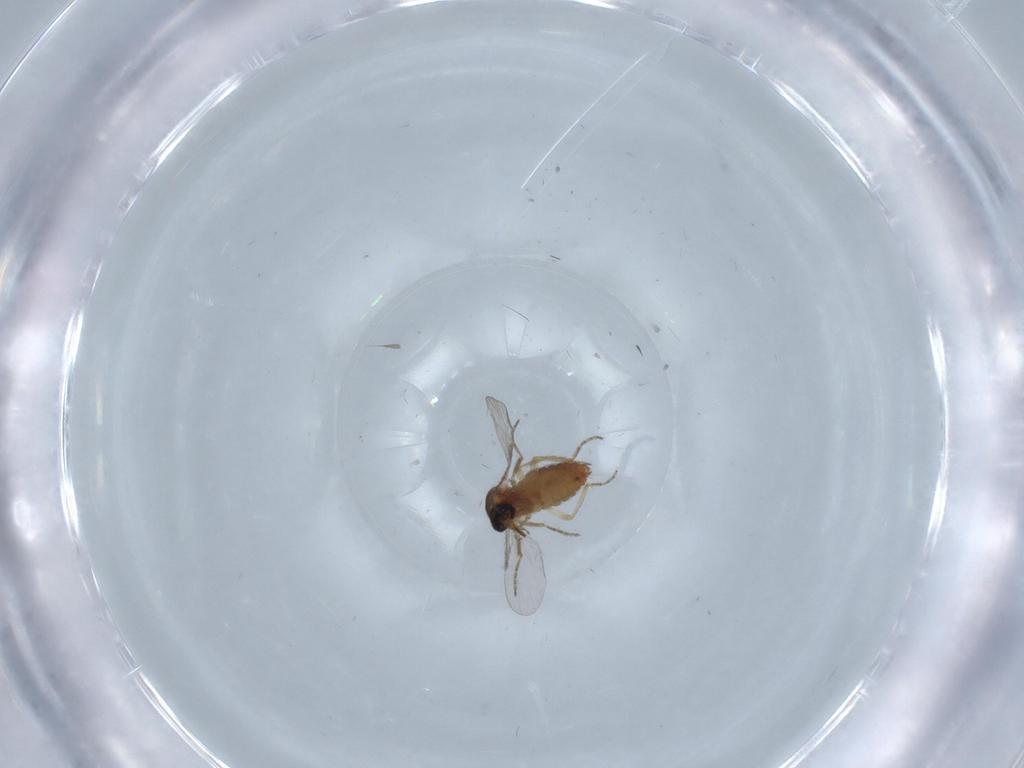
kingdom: Animalia
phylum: Arthropoda
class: Insecta
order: Diptera
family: Ceratopogonidae
